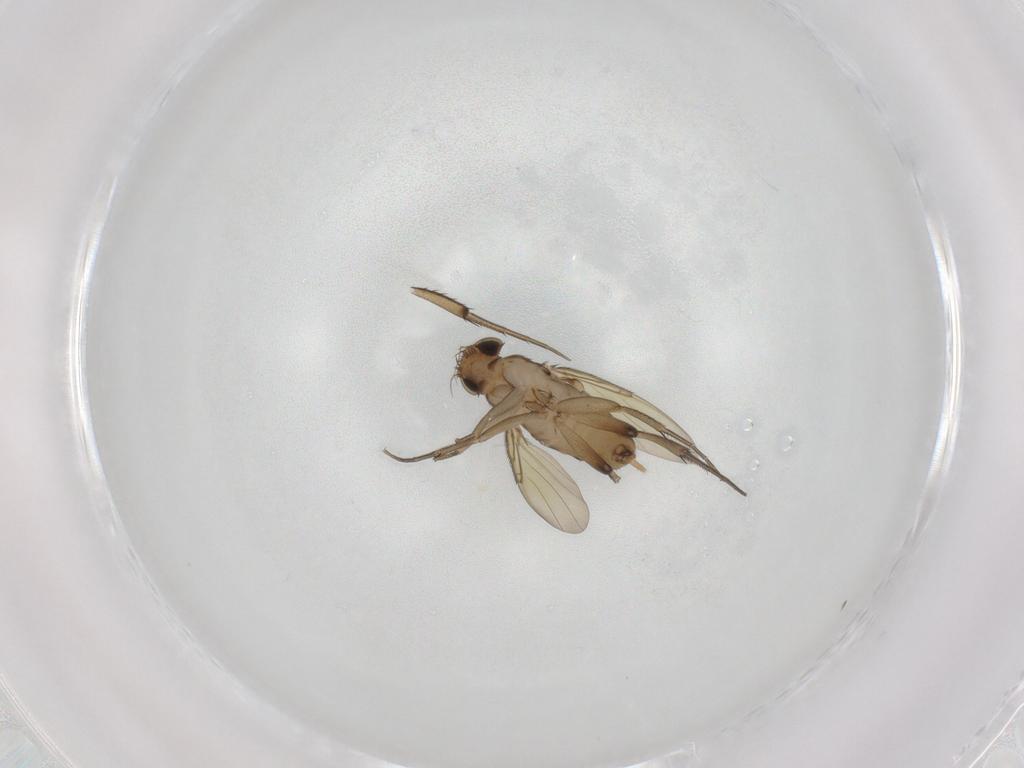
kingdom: Animalia
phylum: Arthropoda
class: Insecta
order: Diptera
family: Phoridae
